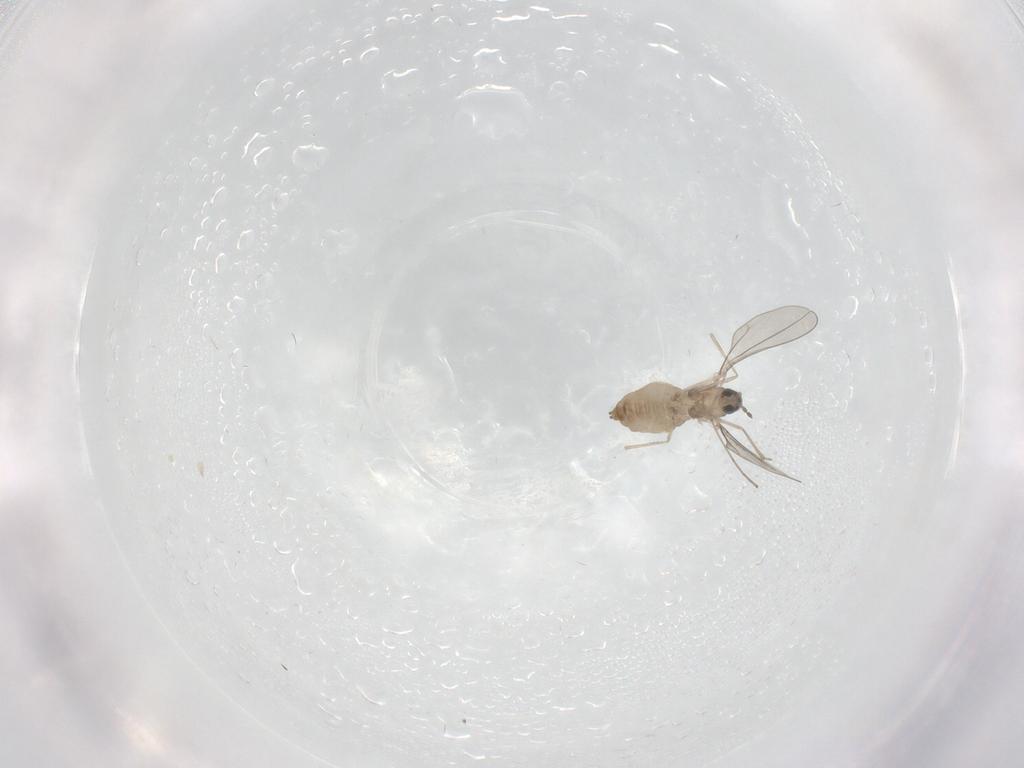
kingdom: Animalia
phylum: Arthropoda
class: Insecta
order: Diptera
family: Cecidomyiidae
